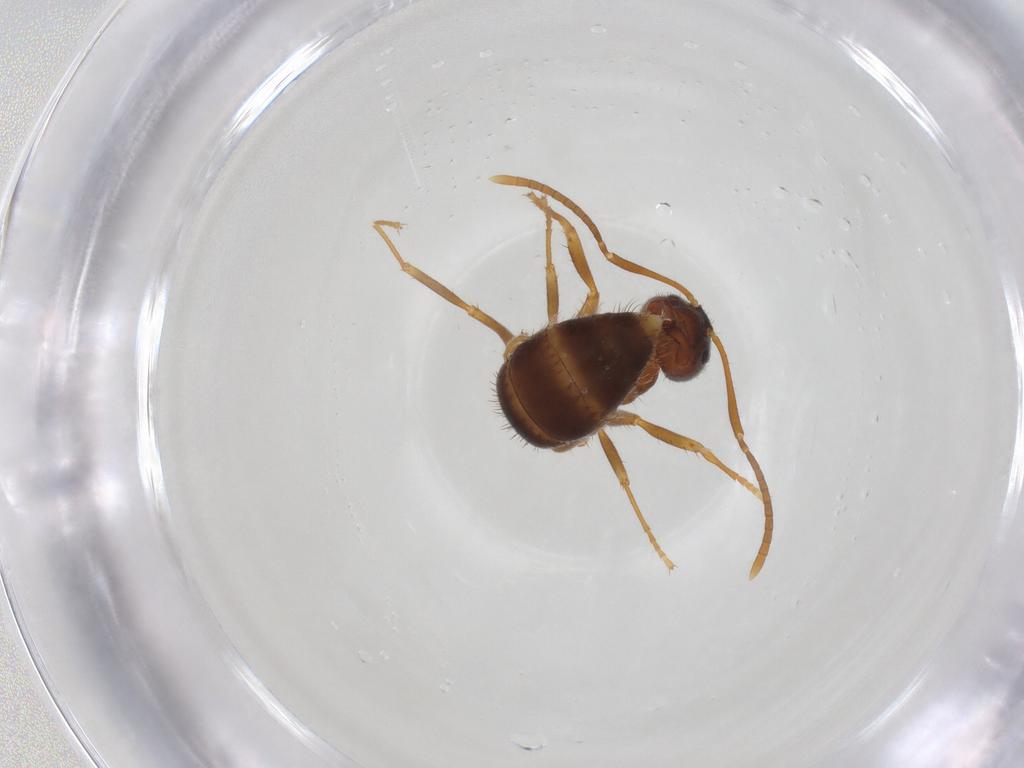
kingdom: Animalia
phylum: Arthropoda
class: Insecta
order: Hymenoptera
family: Formicidae
